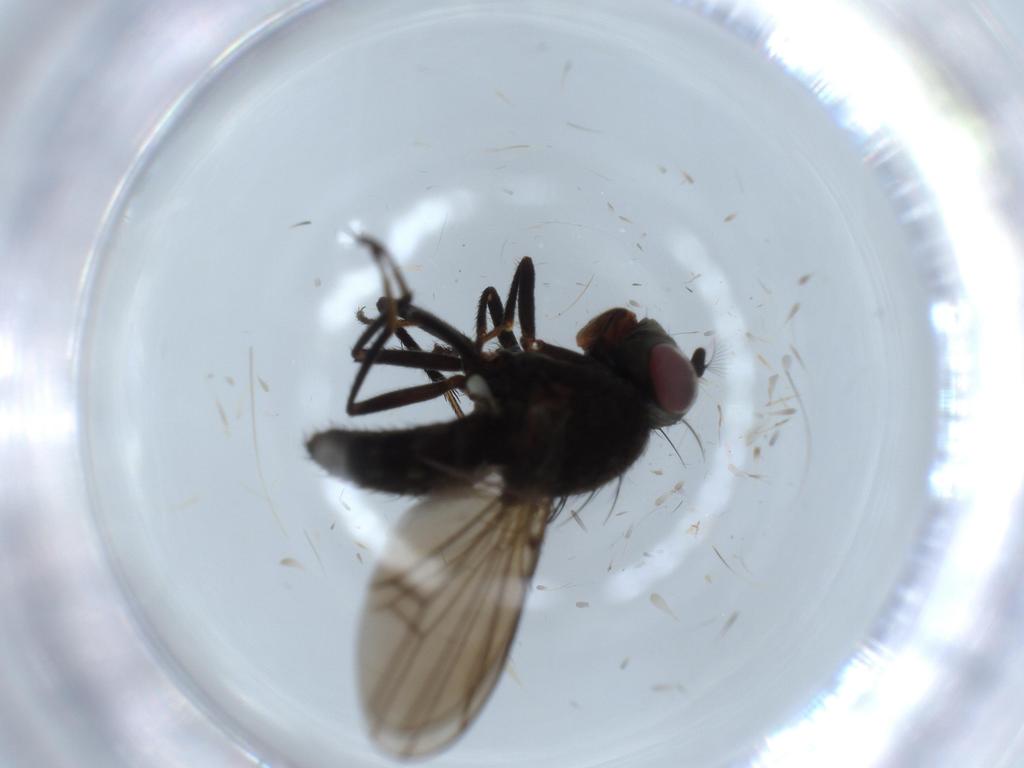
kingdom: Animalia
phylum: Arthropoda
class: Insecta
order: Diptera
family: Ephydridae
